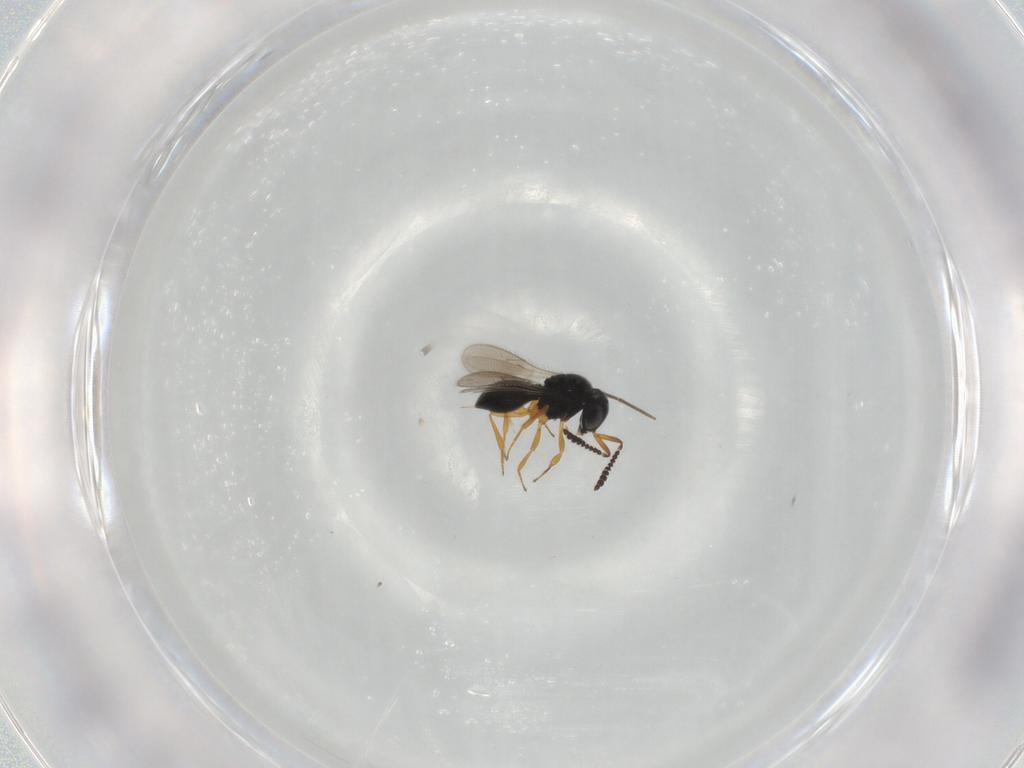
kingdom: Animalia
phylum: Arthropoda
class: Insecta
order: Hymenoptera
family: Scelionidae
